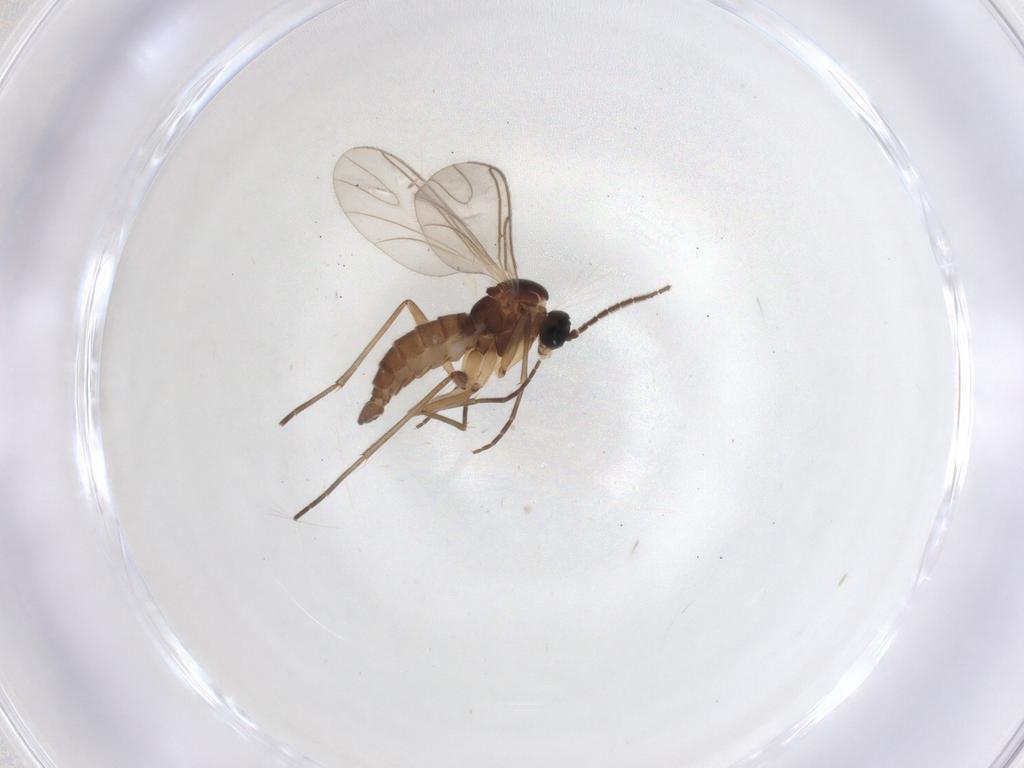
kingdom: Animalia
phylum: Arthropoda
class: Insecta
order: Diptera
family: Sciaridae
